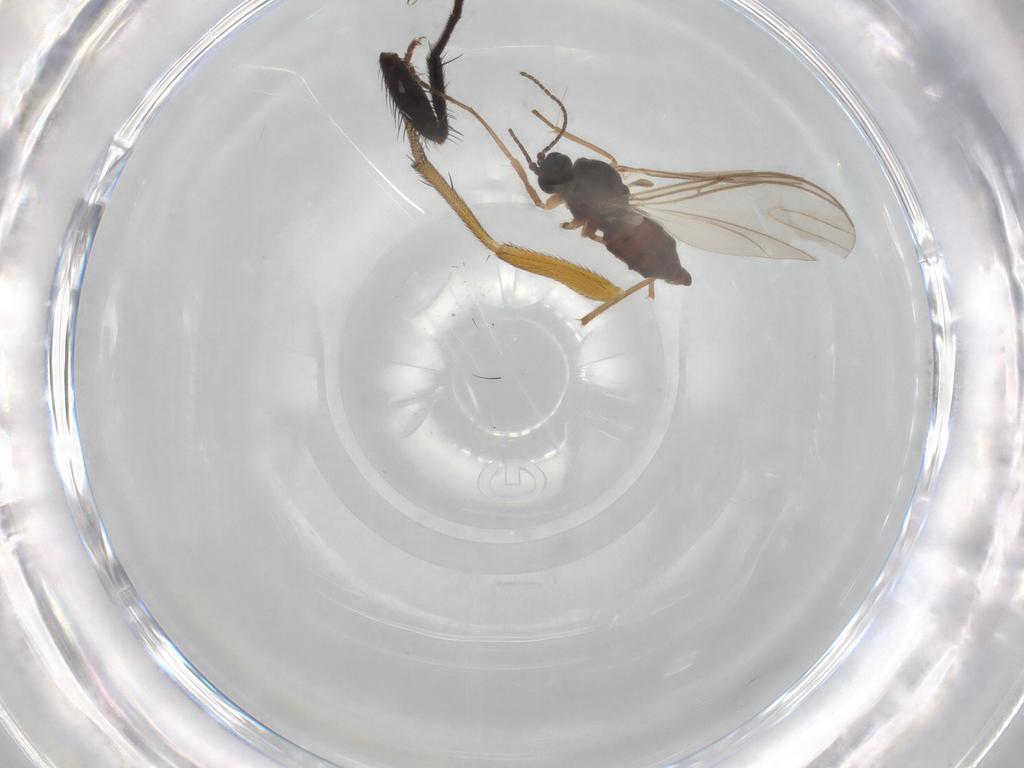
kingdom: Animalia
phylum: Arthropoda
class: Insecta
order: Diptera
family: Muscidae
